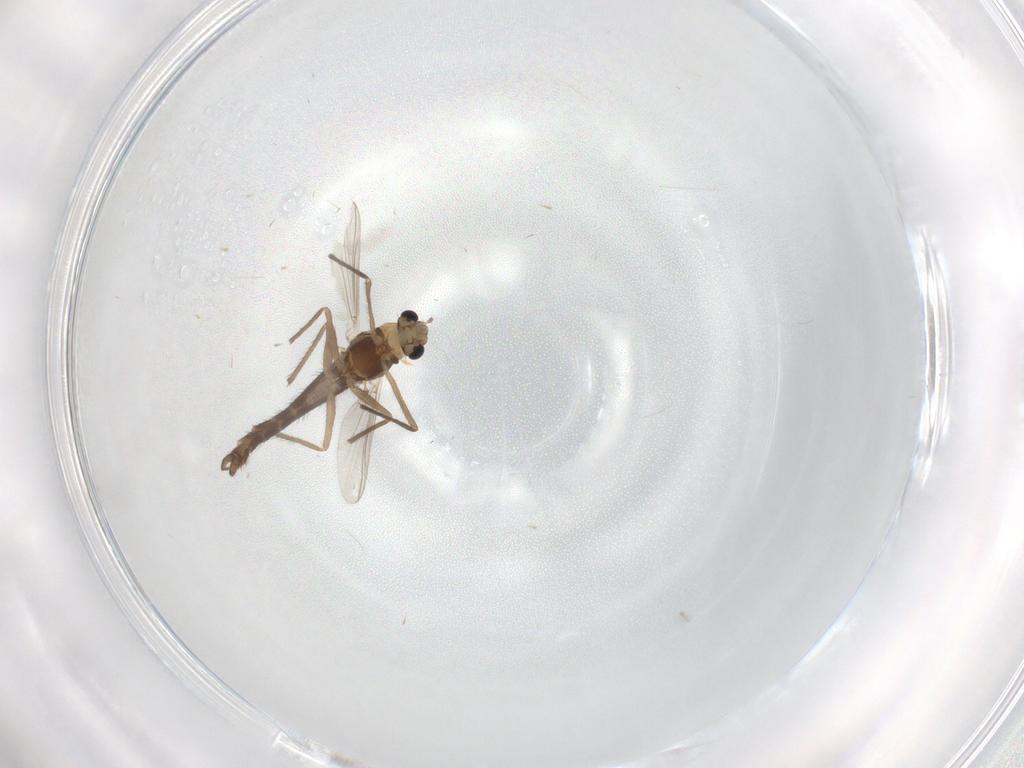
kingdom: Animalia
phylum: Arthropoda
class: Insecta
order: Diptera
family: Chironomidae
